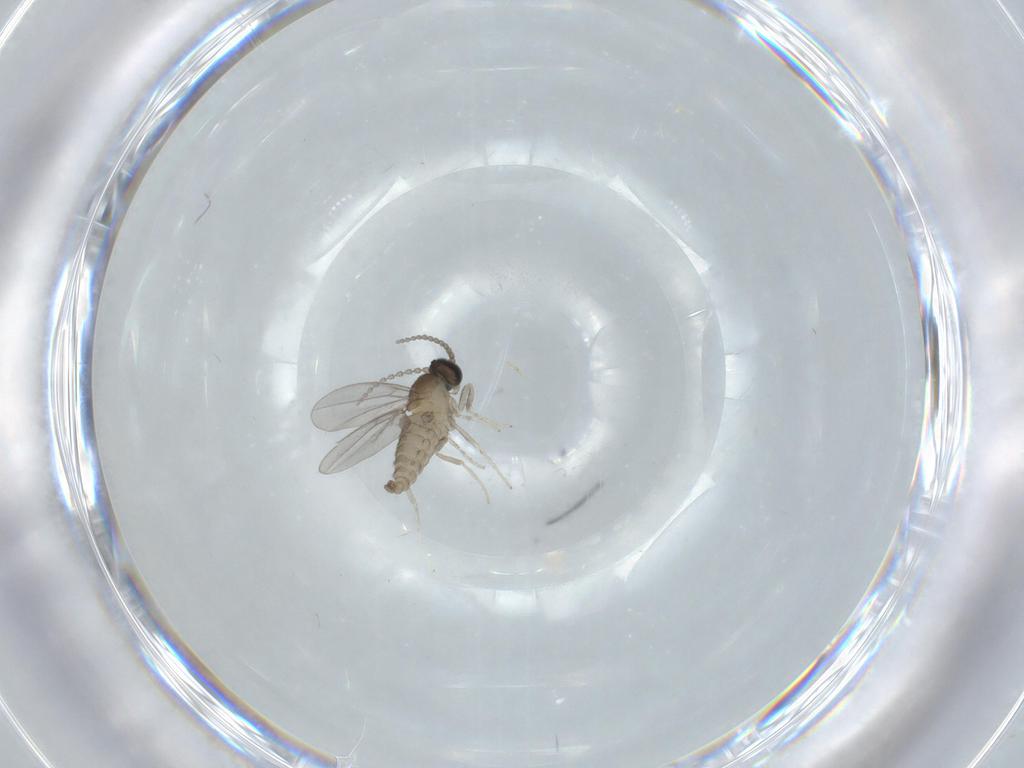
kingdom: Animalia
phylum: Arthropoda
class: Insecta
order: Diptera
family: Cecidomyiidae
